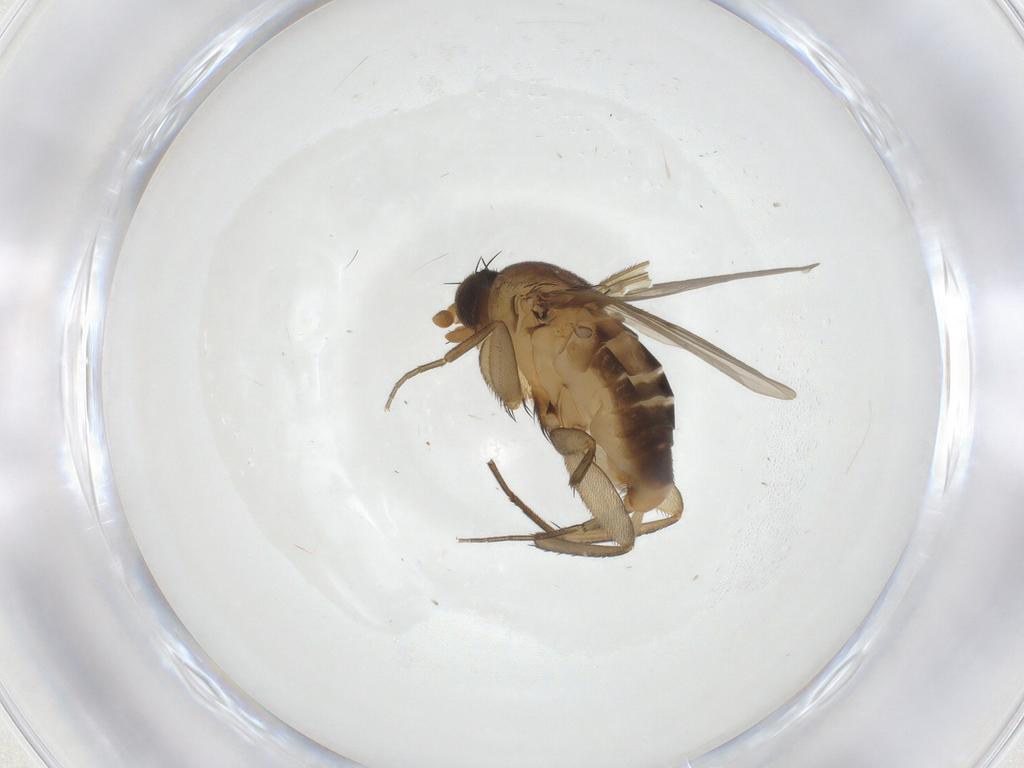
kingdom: Animalia
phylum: Arthropoda
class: Insecta
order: Diptera
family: Phoridae
